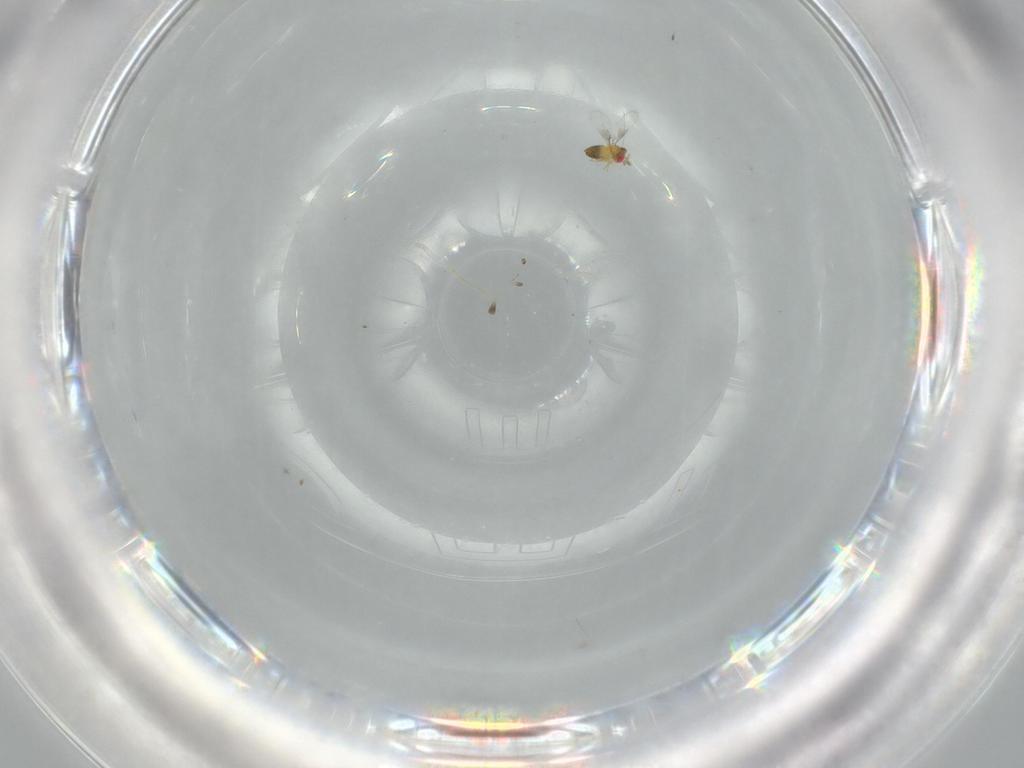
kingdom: Animalia
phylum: Arthropoda
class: Insecta
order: Hymenoptera
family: Trichogrammatidae
